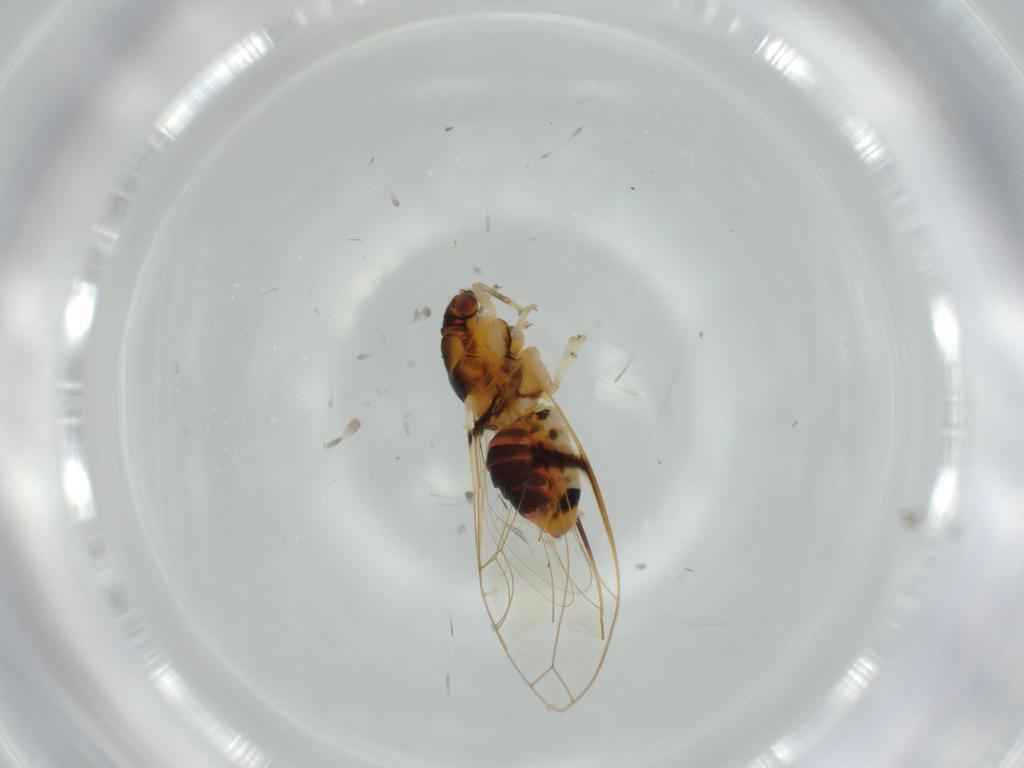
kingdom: Animalia
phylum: Arthropoda
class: Insecta
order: Hemiptera
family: Triozidae
